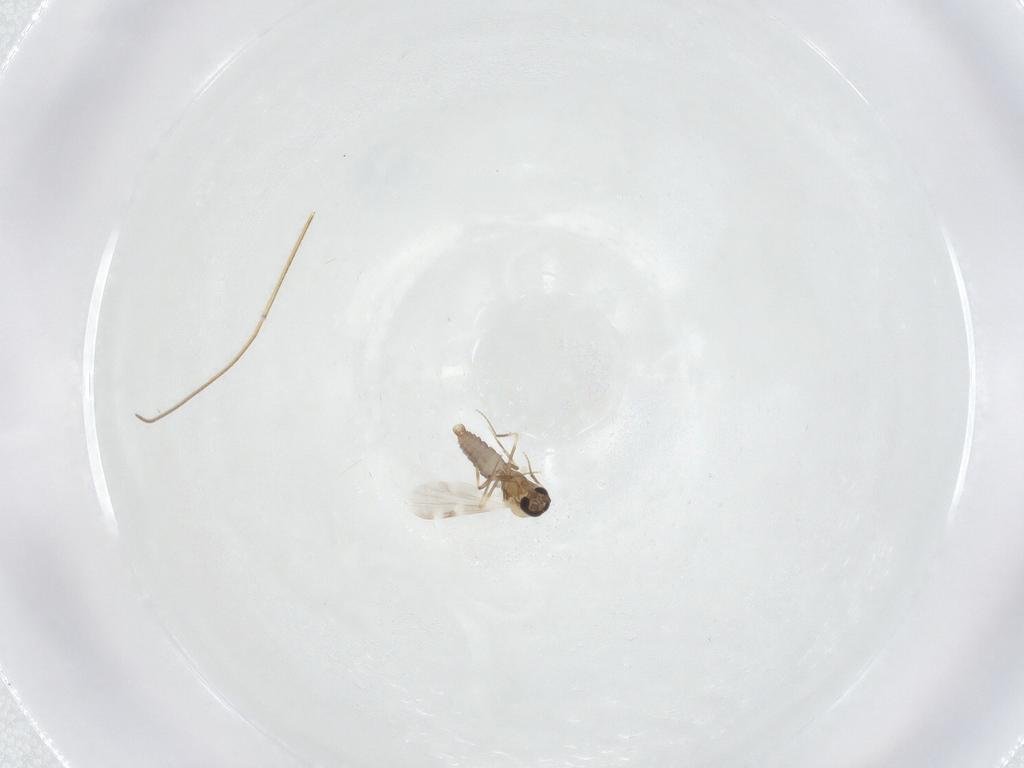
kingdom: Animalia
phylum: Arthropoda
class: Insecta
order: Diptera
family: Ceratopogonidae
